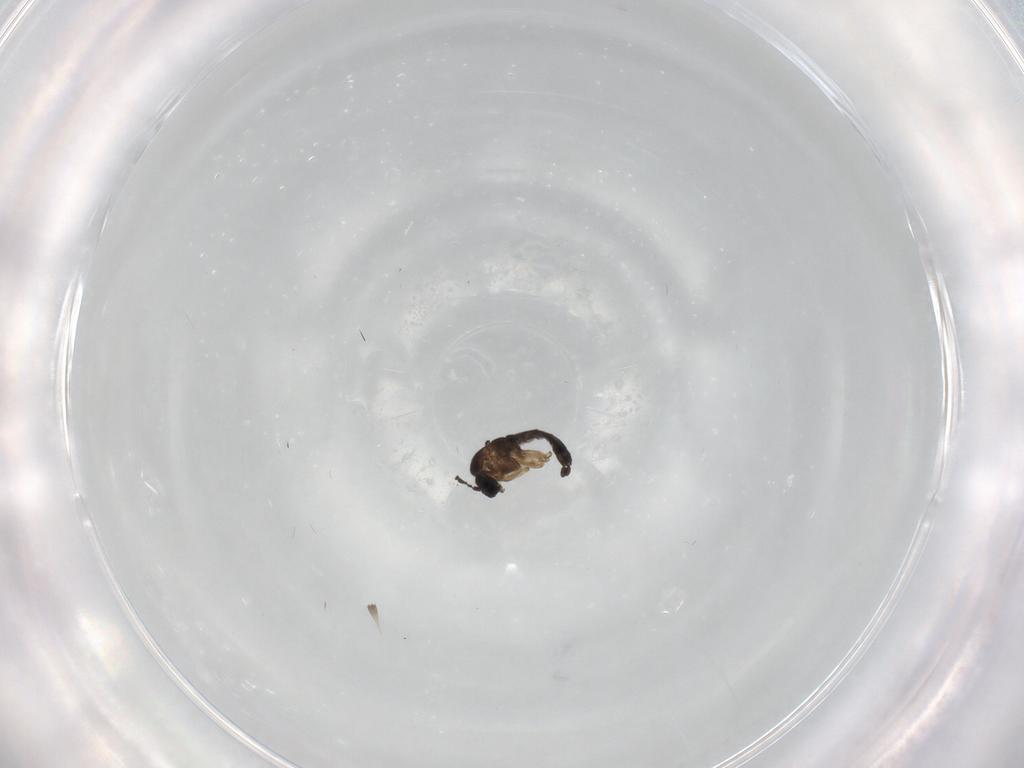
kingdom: Animalia
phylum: Arthropoda
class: Insecta
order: Diptera
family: Sciaridae
